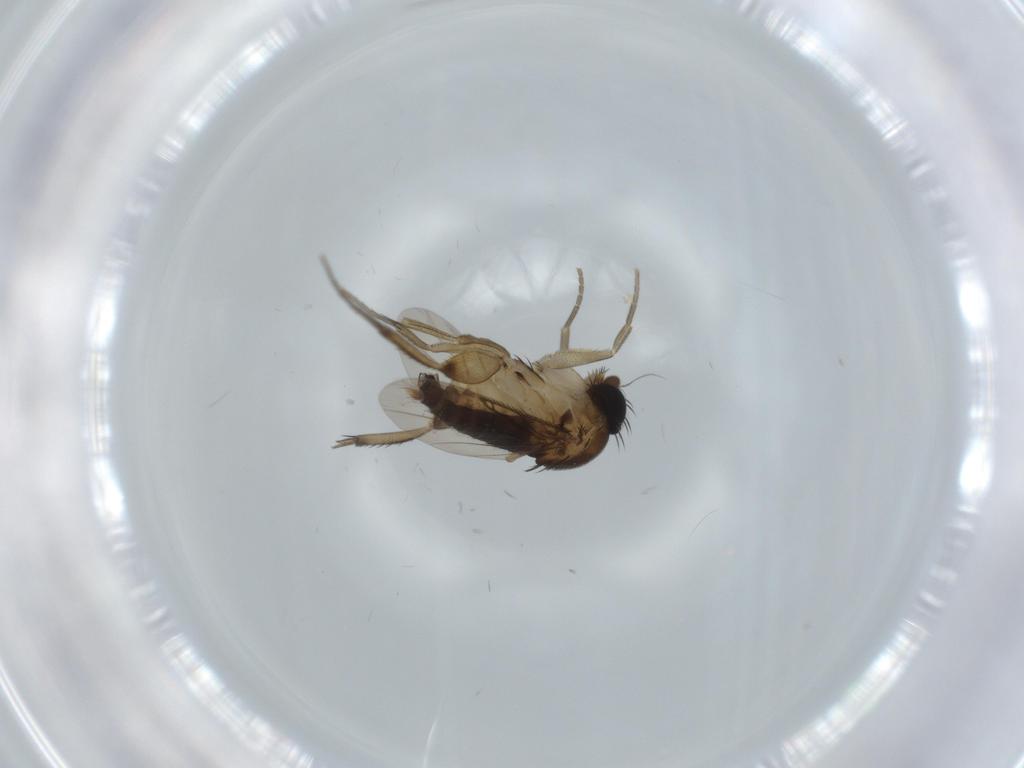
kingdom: Animalia
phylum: Arthropoda
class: Insecta
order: Diptera
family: Phoridae
